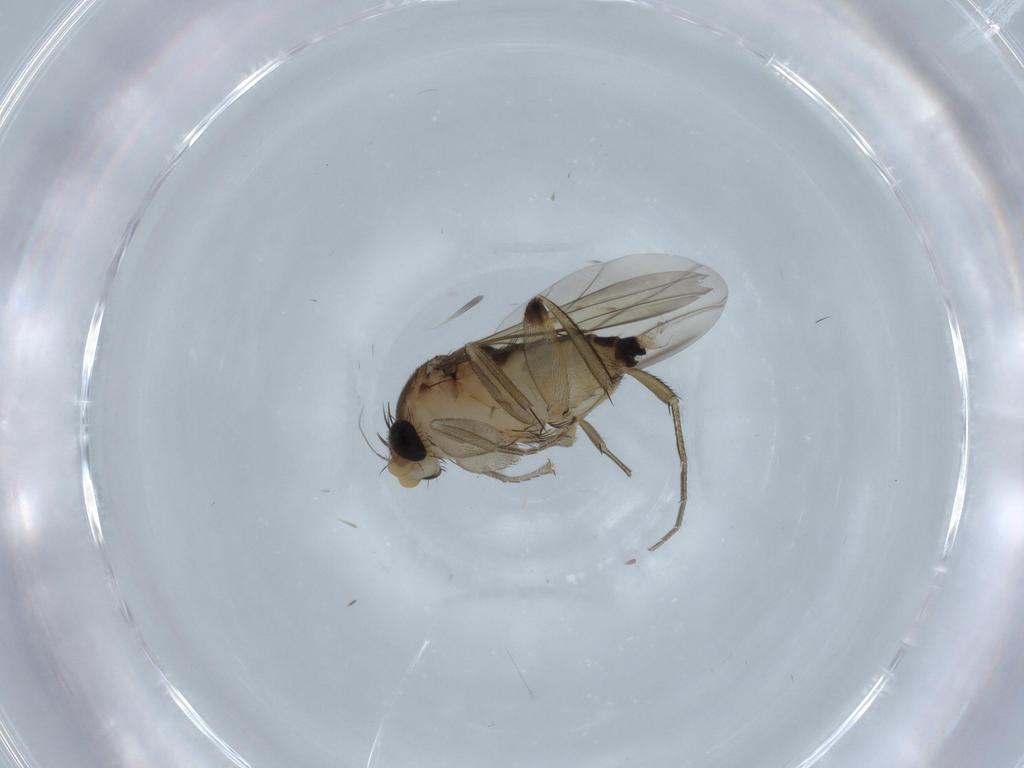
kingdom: Animalia
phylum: Arthropoda
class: Insecta
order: Diptera
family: Phoridae
